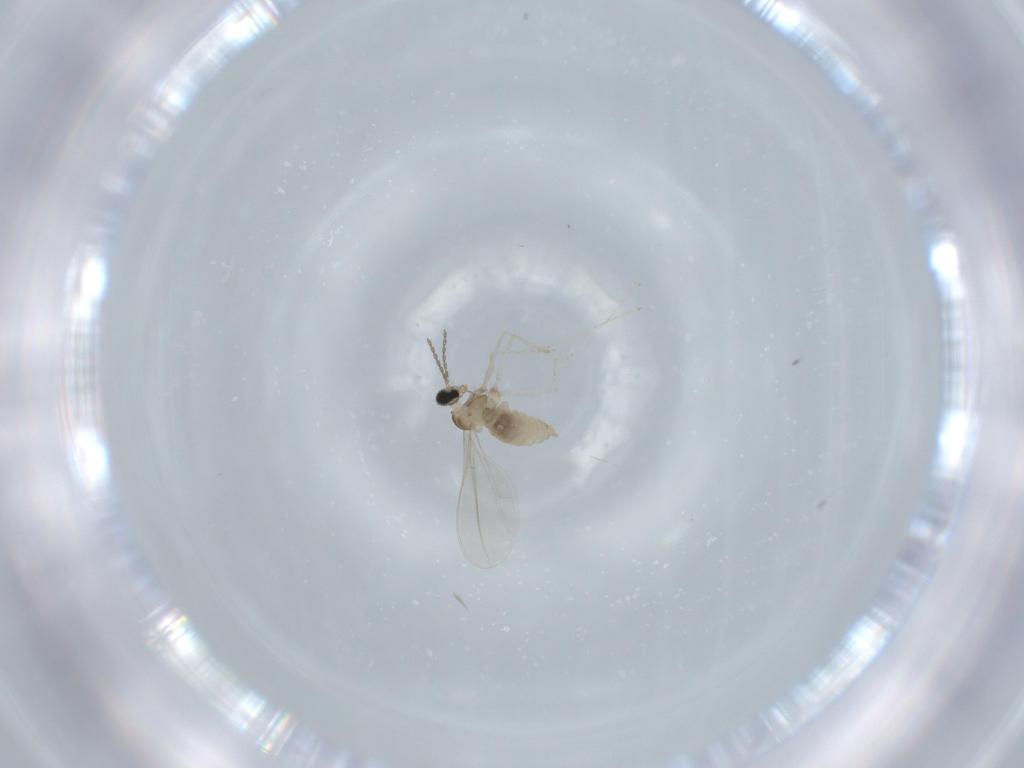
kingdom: Animalia
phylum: Arthropoda
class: Insecta
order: Diptera
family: Cecidomyiidae
